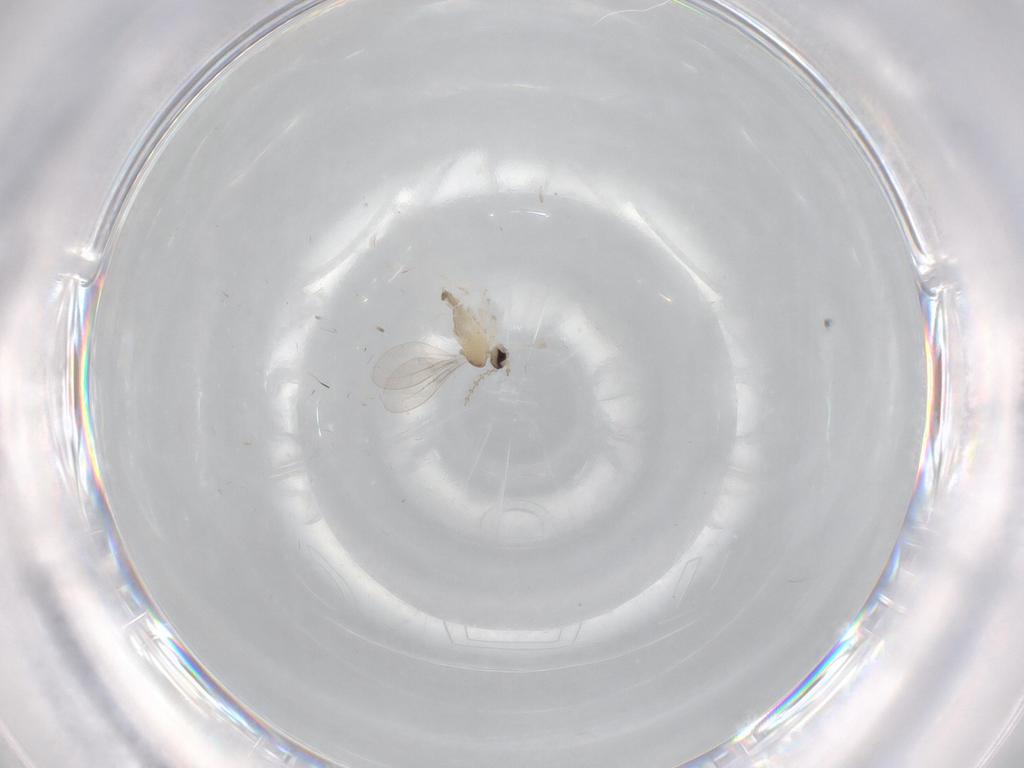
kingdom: Animalia
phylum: Arthropoda
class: Insecta
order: Diptera
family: Cecidomyiidae
